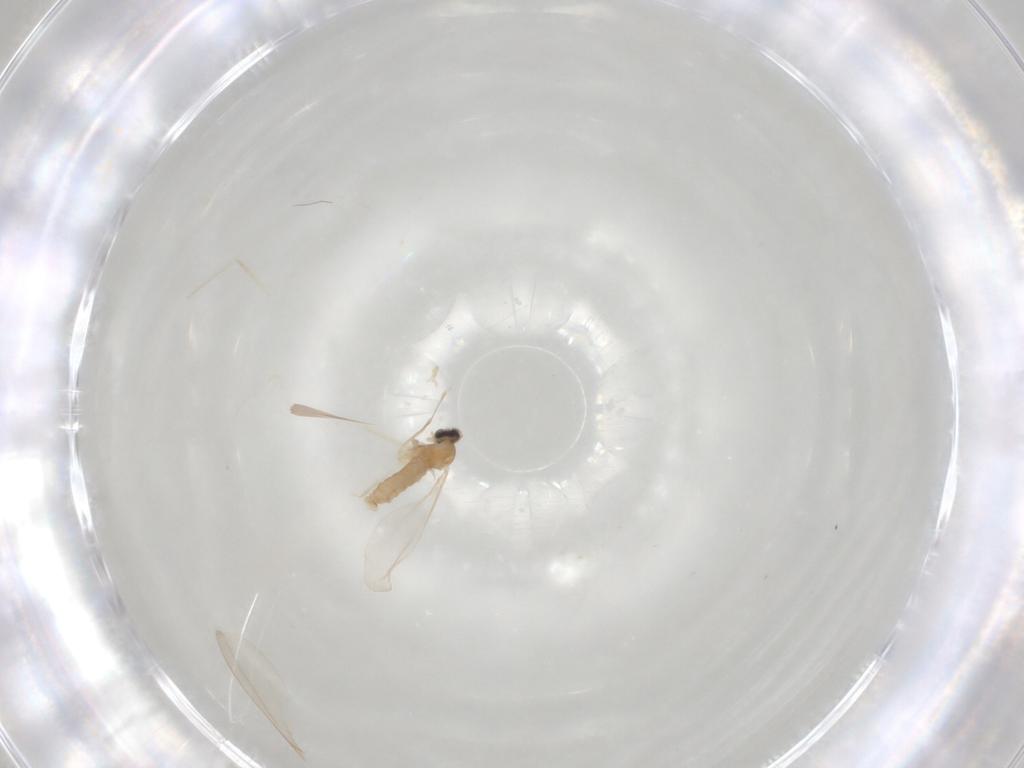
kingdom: Animalia
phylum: Arthropoda
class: Insecta
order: Diptera
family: Cecidomyiidae
